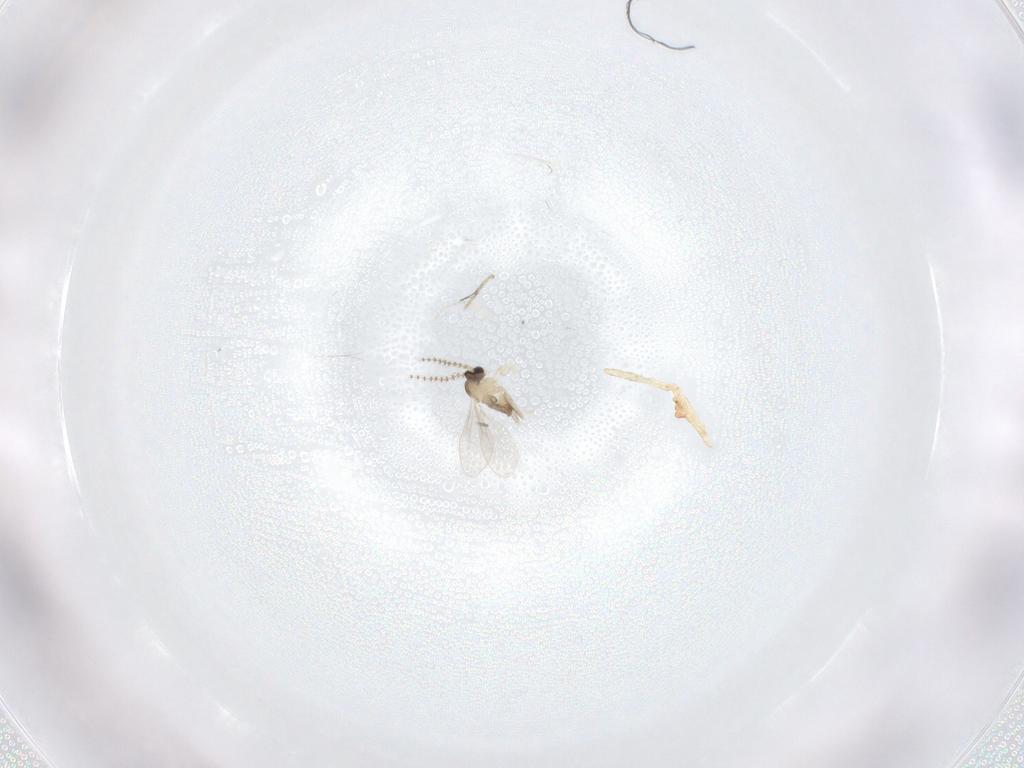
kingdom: Animalia
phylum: Arthropoda
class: Insecta
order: Diptera
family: Cecidomyiidae
